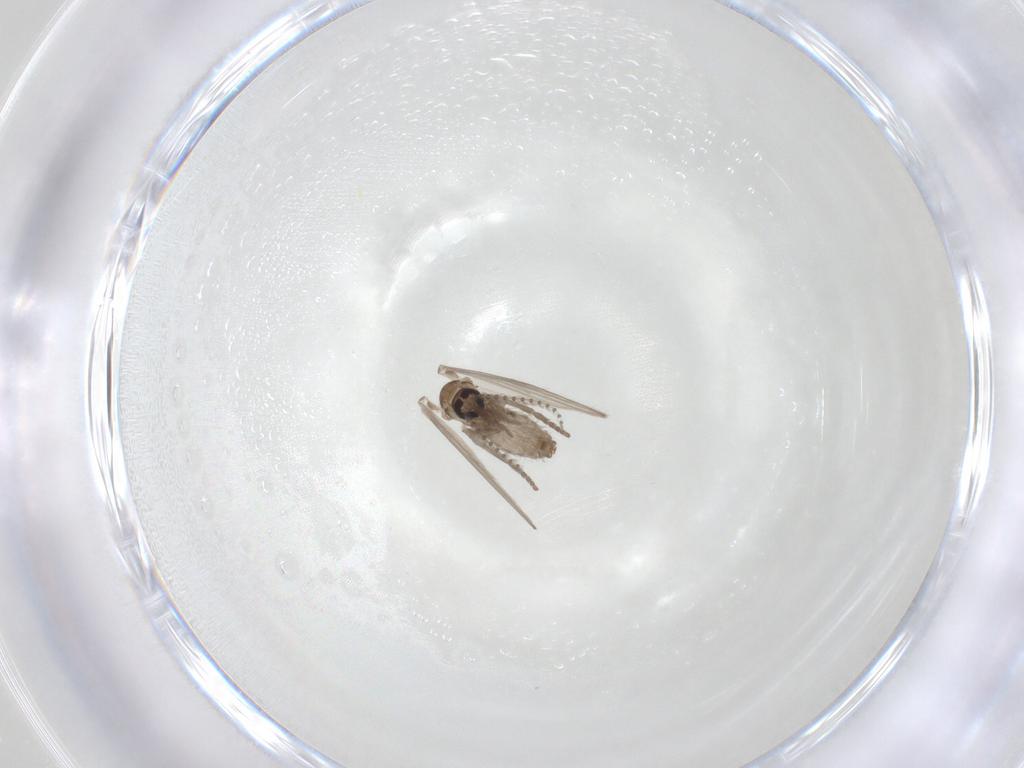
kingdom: Animalia
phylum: Arthropoda
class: Insecta
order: Diptera
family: Psychodidae
